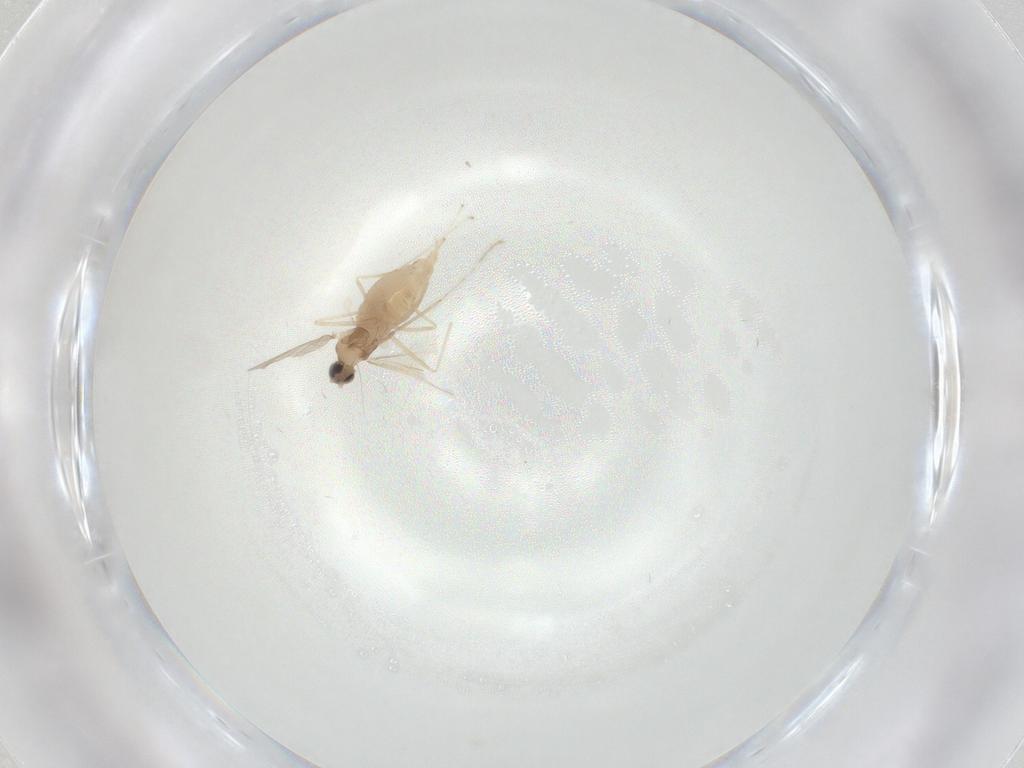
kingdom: Animalia
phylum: Arthropoda
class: Insecta
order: Diptera
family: Cecidomyiidae
